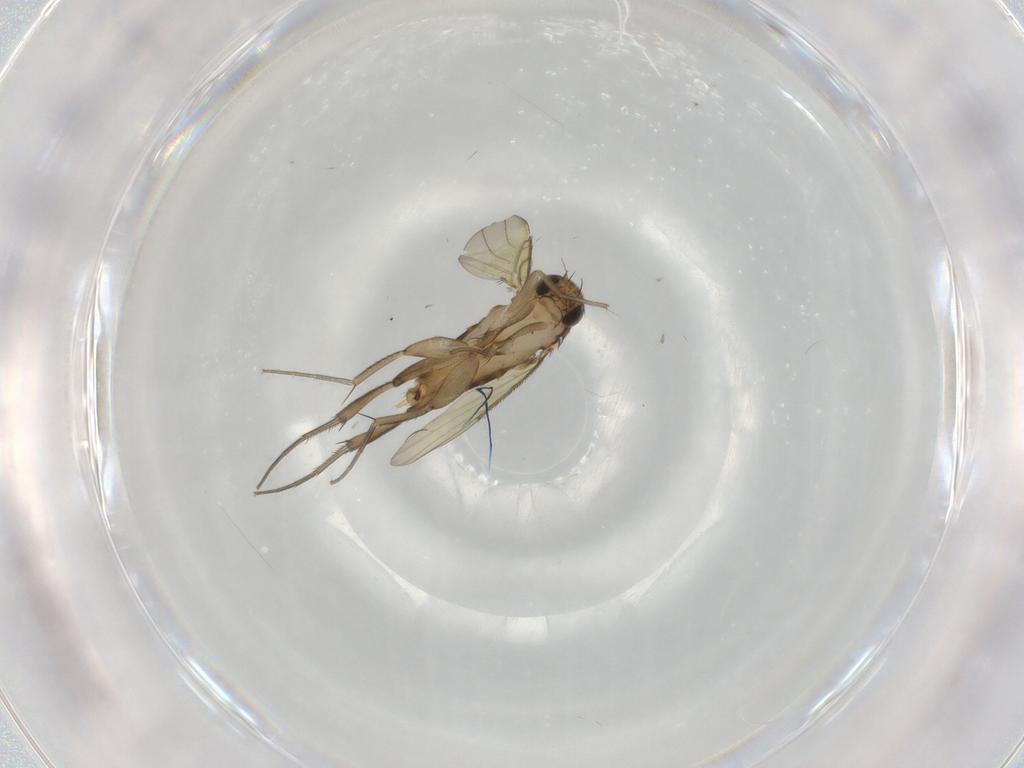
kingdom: Animalia
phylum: Arthropoda
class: Insecta
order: Diptera
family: Phoridae
